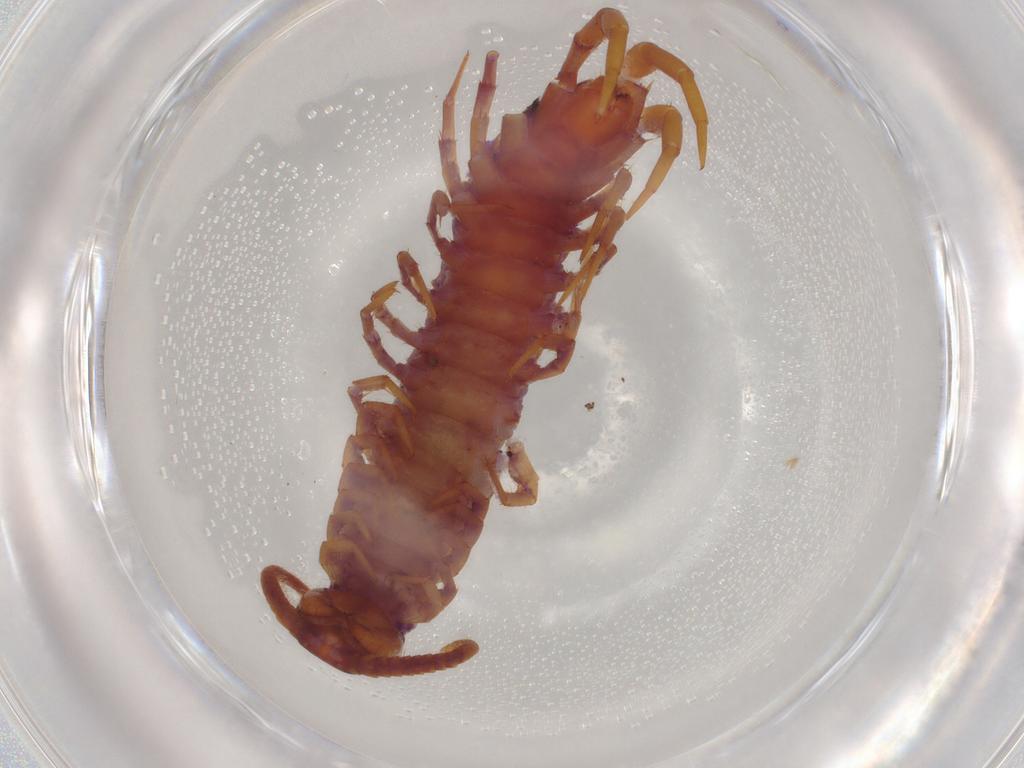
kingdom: Animalia
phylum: Arthropoda
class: Chilopoda
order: Lithobiomorpha
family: Lithobiidae
